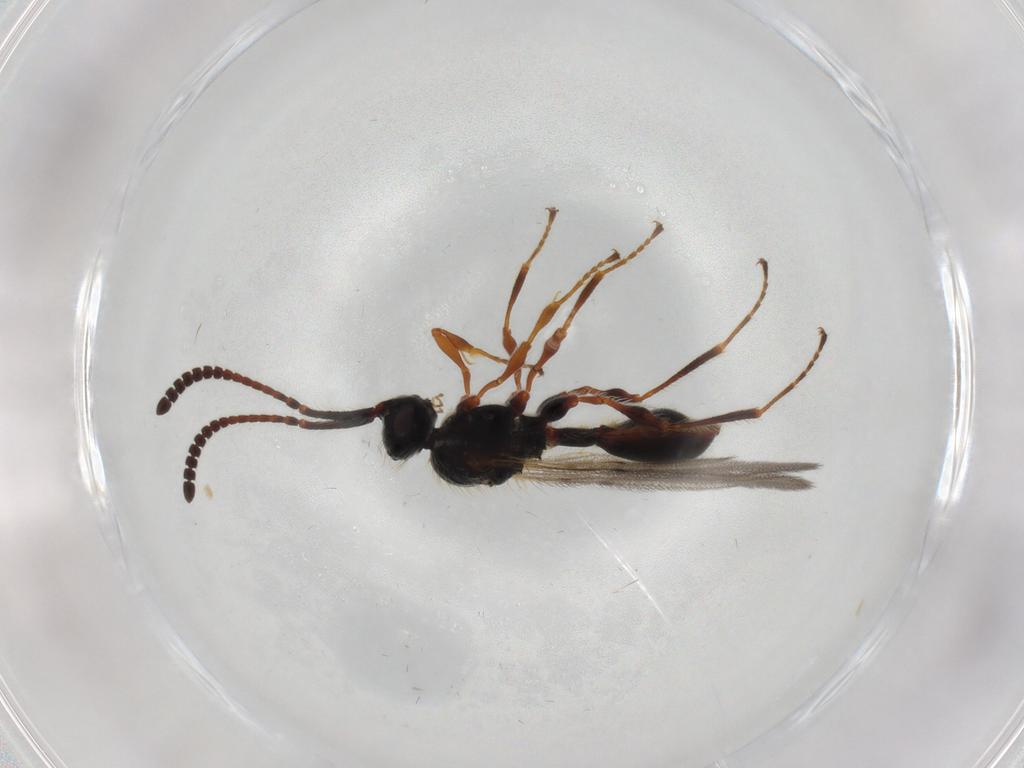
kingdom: Animalia
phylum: Arthropoda
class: Insecta
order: Hymenoptera
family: Diapriidae
